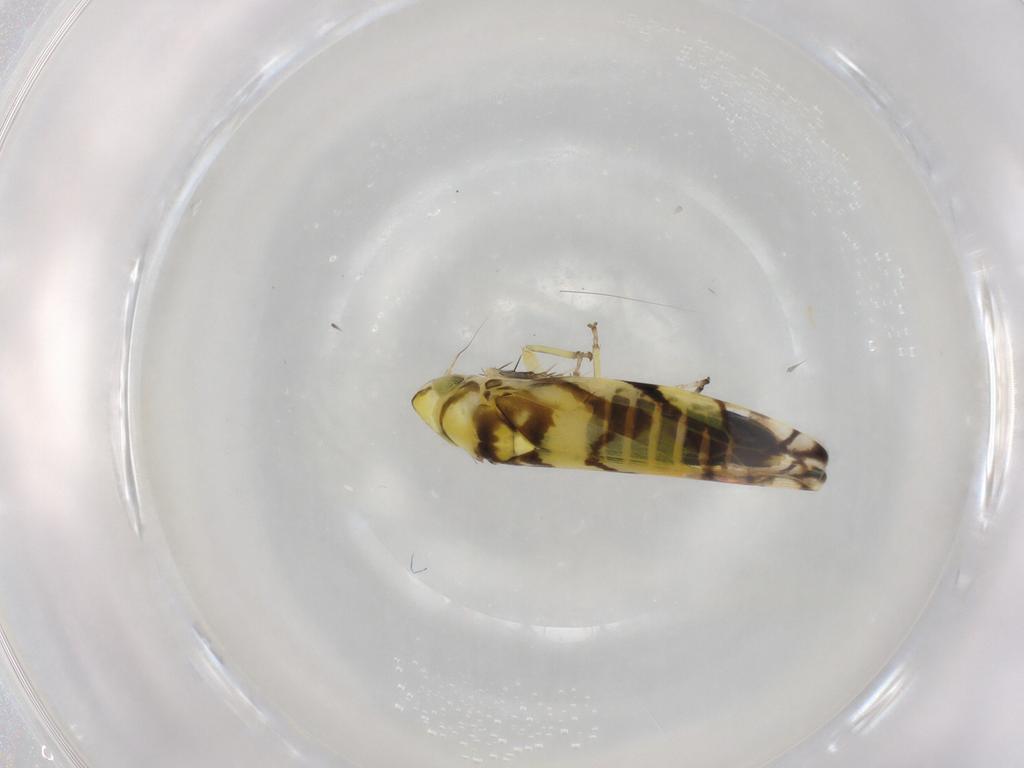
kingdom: Animalia
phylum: Arthropoda
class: Insecta
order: Hemiptera
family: Cicadellidae
